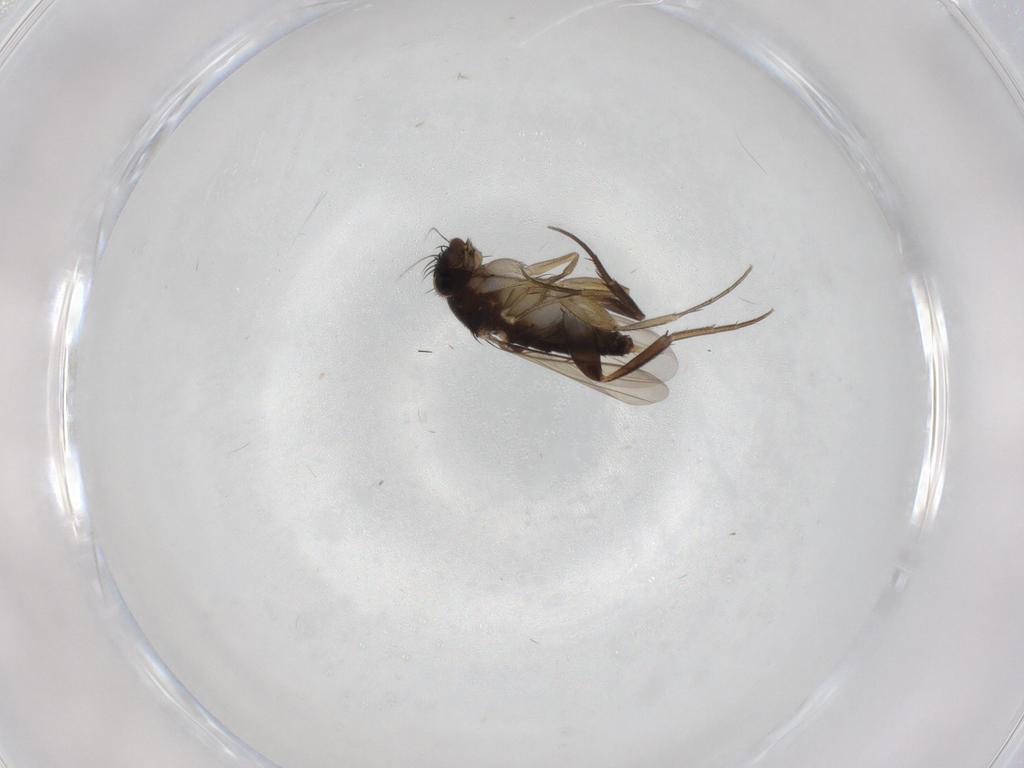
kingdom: Animalia
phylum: Arthropoda
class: Insecta
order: Diptera
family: Phoridae
